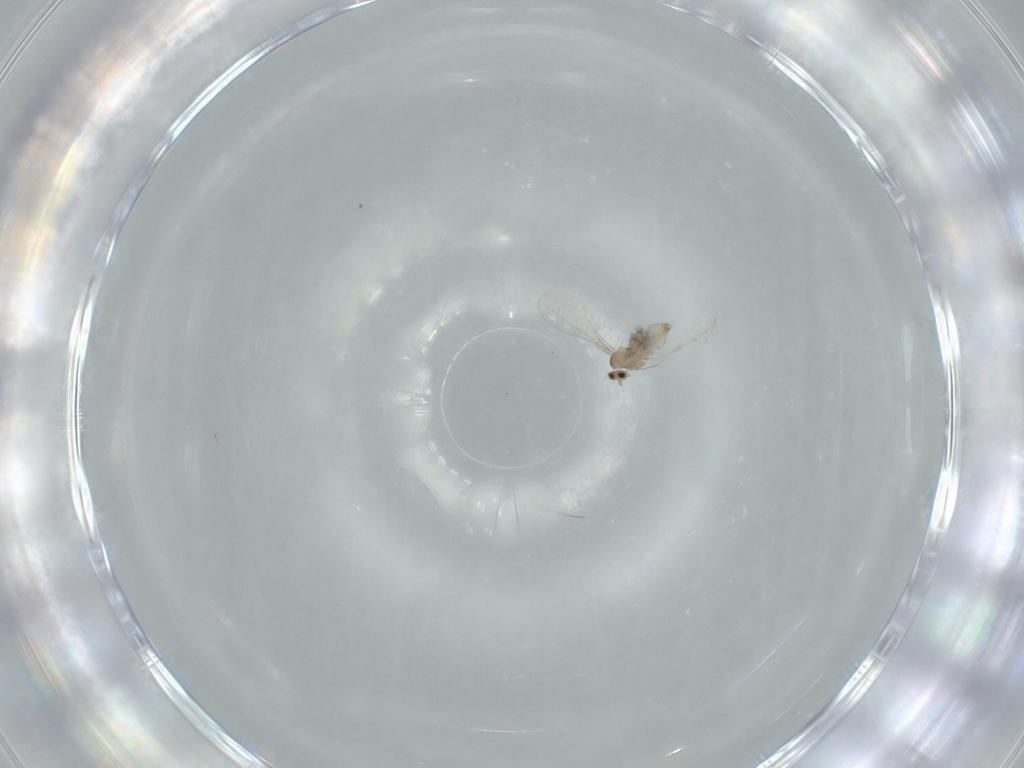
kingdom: Animalia
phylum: Arthropoda
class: Insecta
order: Diptera
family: Cecidomyiidae
